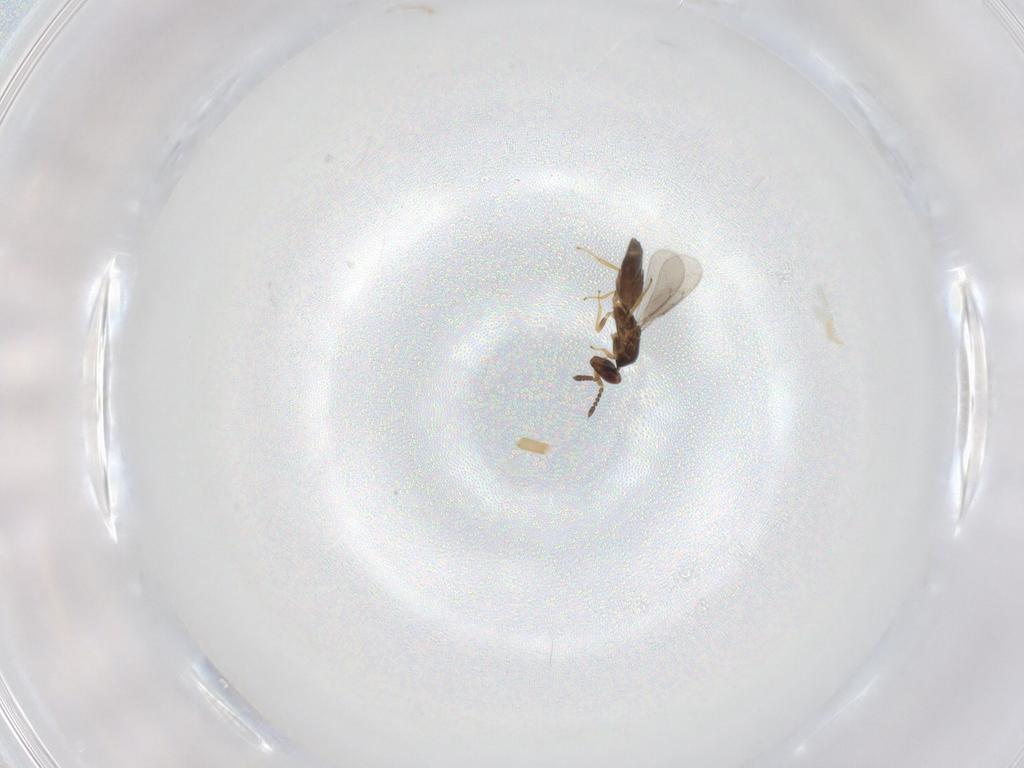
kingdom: Animalia
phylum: Arthropoda
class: Insecta
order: Hymenoptera
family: Eulophidae
